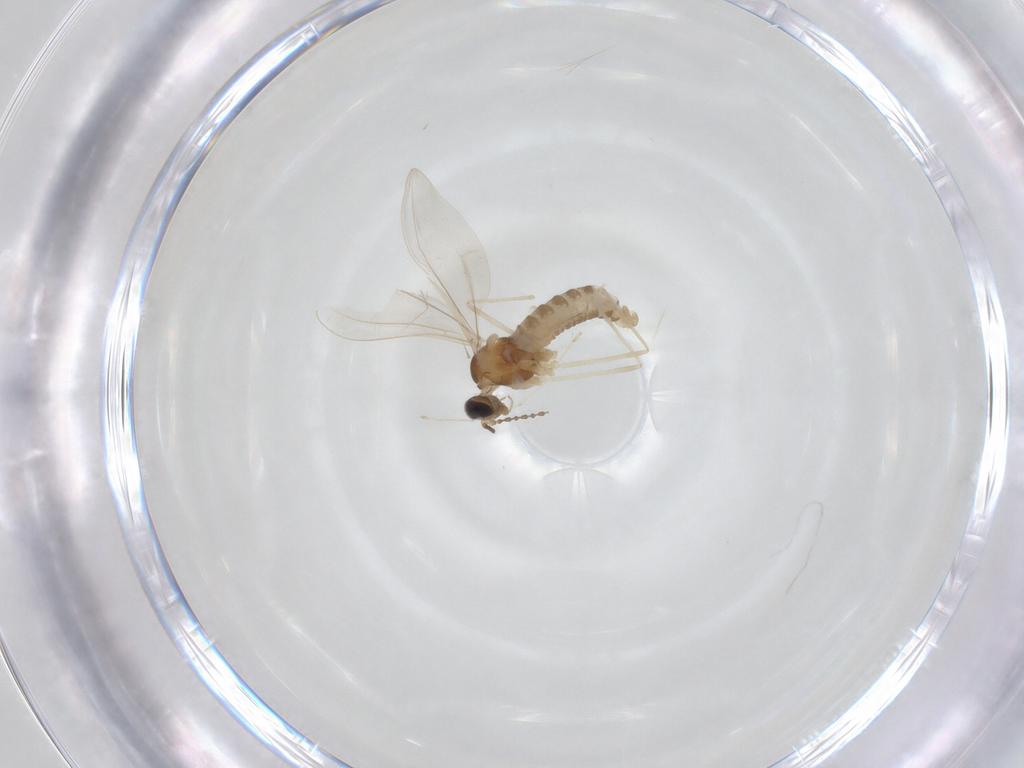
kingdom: Animalia
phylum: Arthropoda
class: Insecta
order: Diptera
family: Cecidomyiidae
